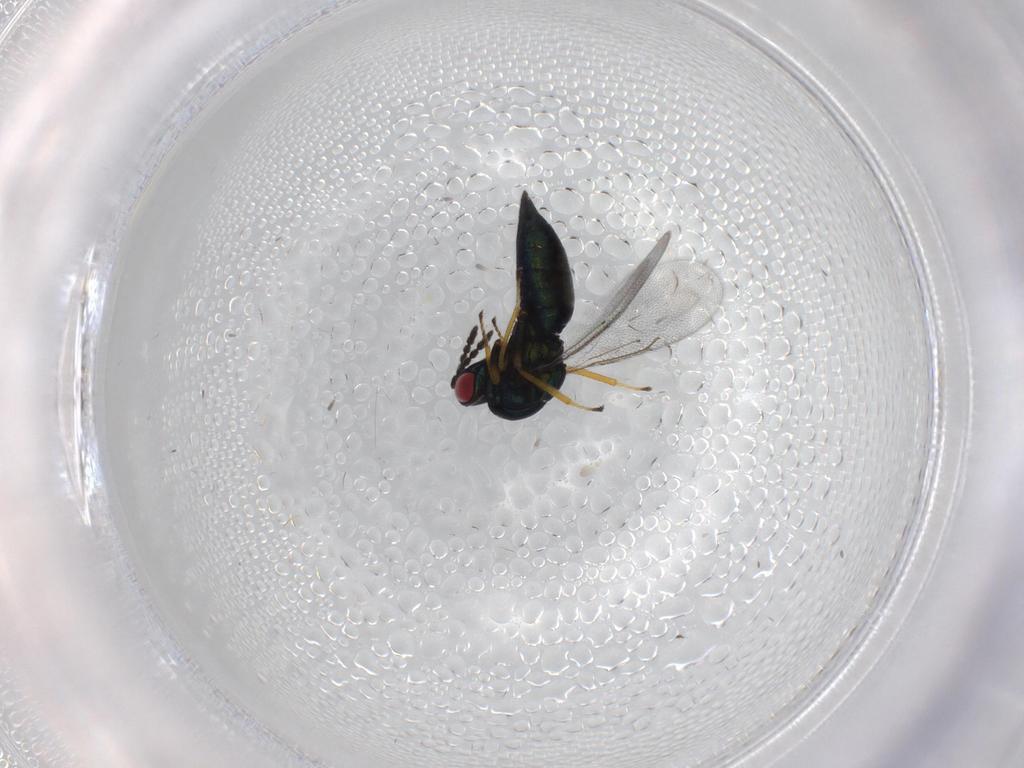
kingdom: Animalia
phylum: Arthropoda
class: Insecta
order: Hymenoptera
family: Eulophidae
